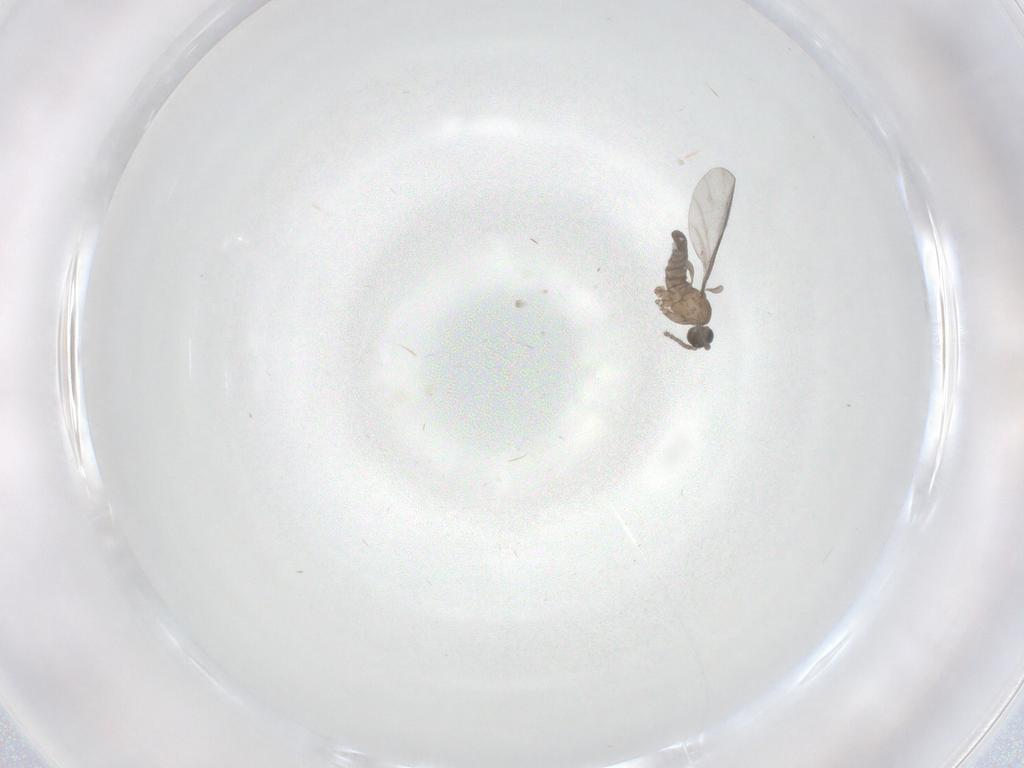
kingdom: Animalia
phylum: Arthropoda
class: Insecta
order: Diptera
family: Sciaridae
